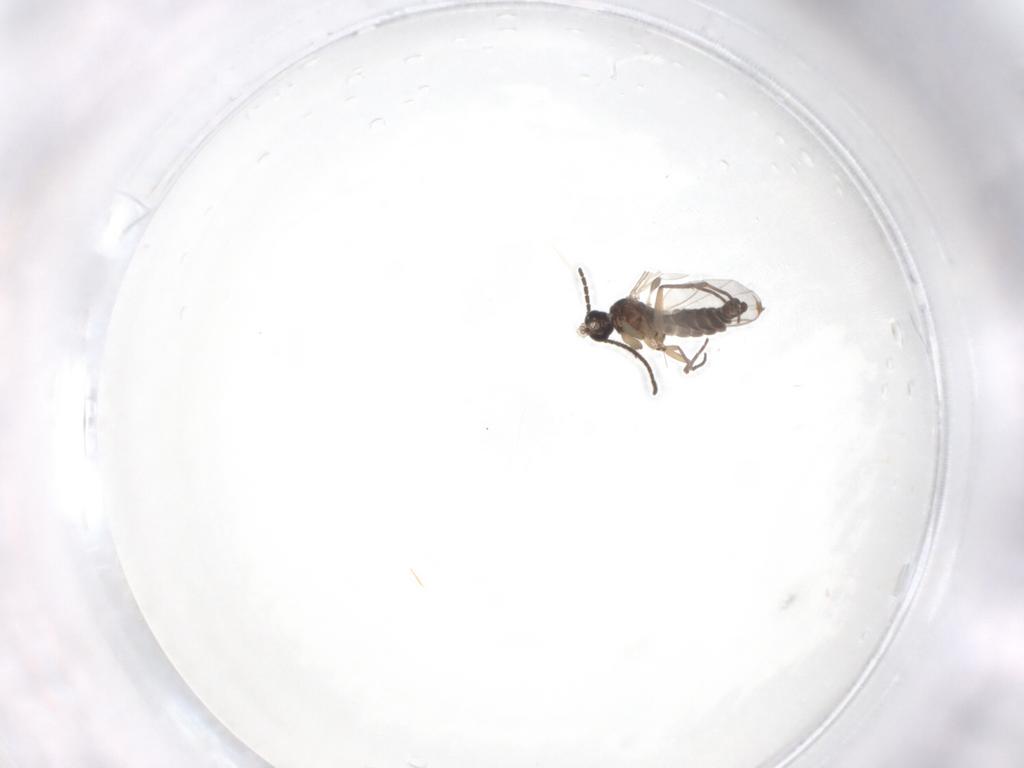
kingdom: Animalia
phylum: Arthropoda
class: Insecta
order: Diptera
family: Sciaridae
